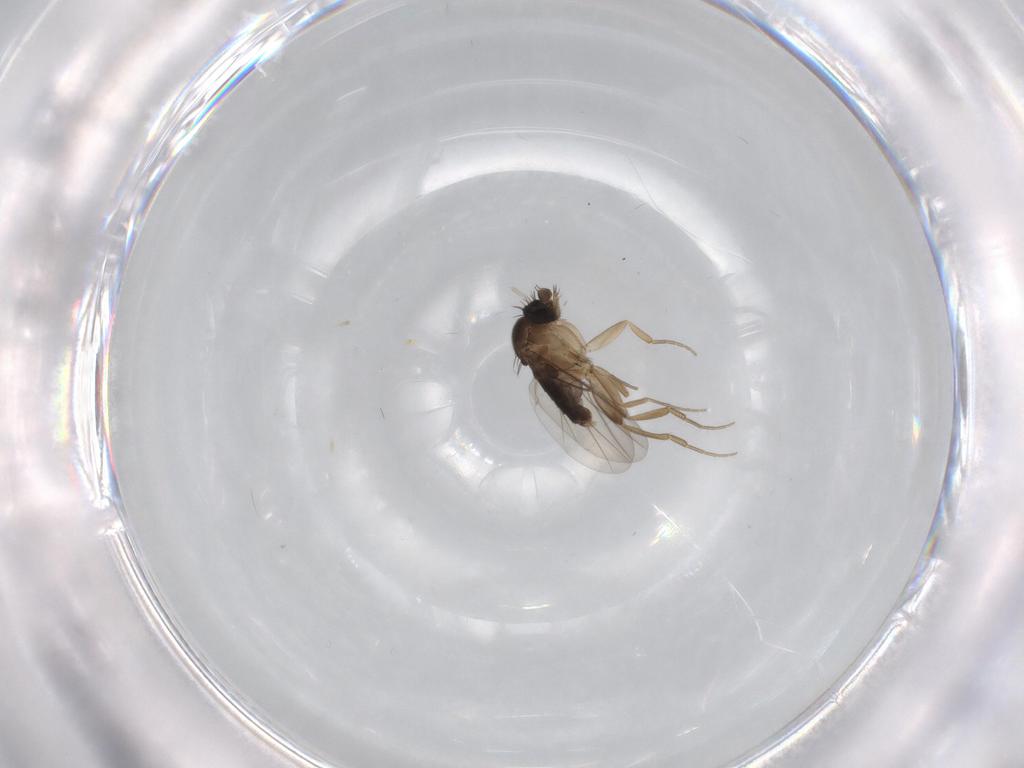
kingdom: Animalia
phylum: Arthropoda
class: Insecta
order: Diptera
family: Phoridae
